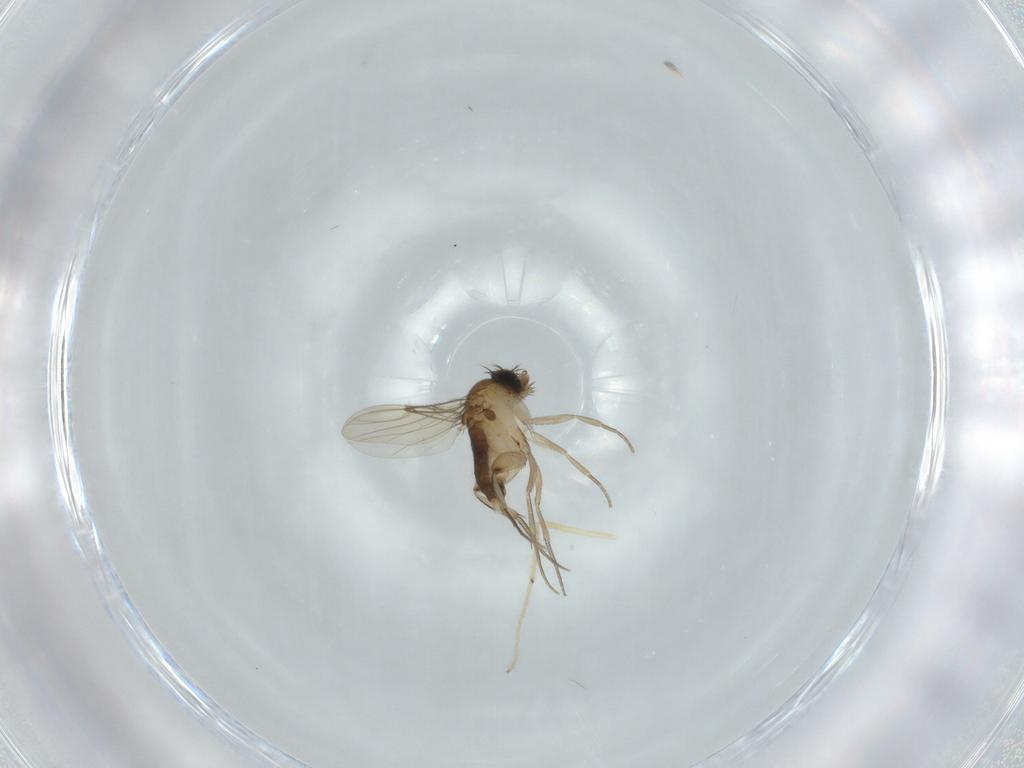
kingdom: Animalia
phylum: Arthropoda
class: Insecta
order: Diptera
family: Phoridae
